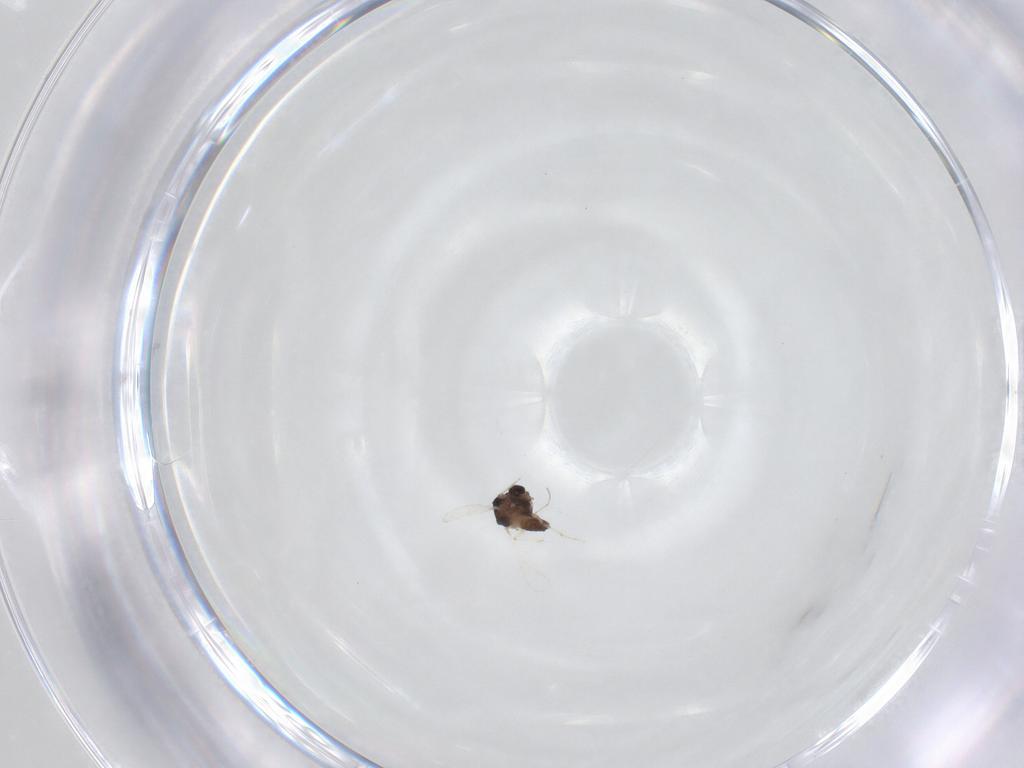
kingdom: Animalia
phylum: Arthropoda
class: Insecta
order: Diptera
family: Chironomidae
